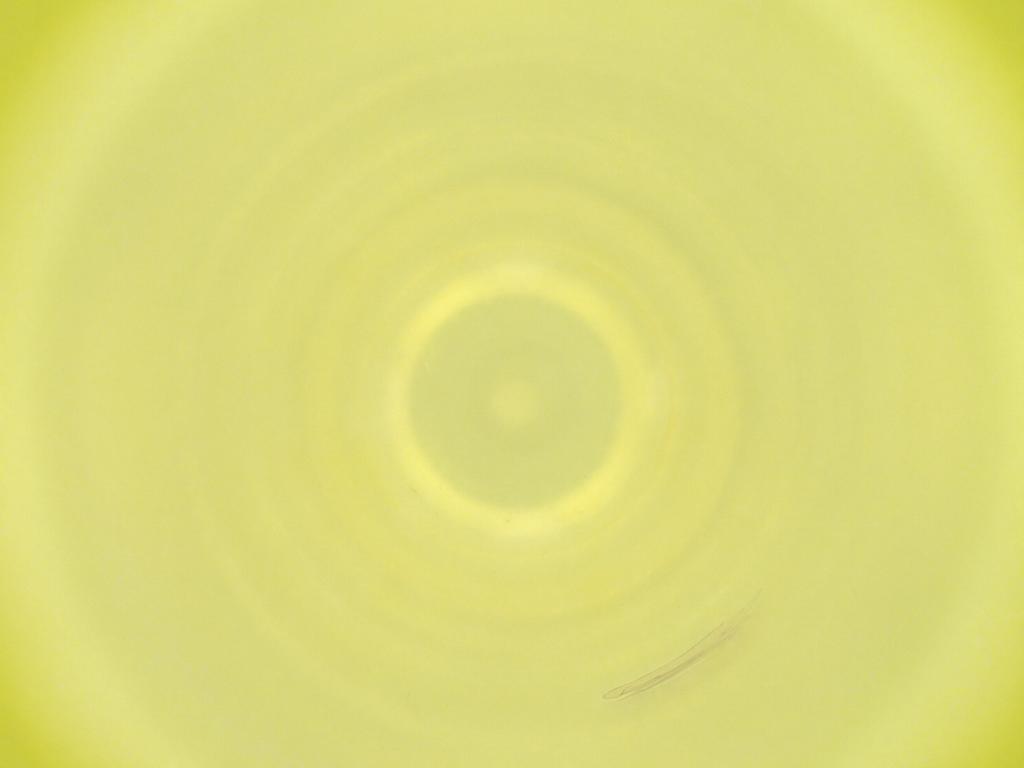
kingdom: Animalia
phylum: Arthropoda
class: Insecta
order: Diptera
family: Cecidomyiidae
